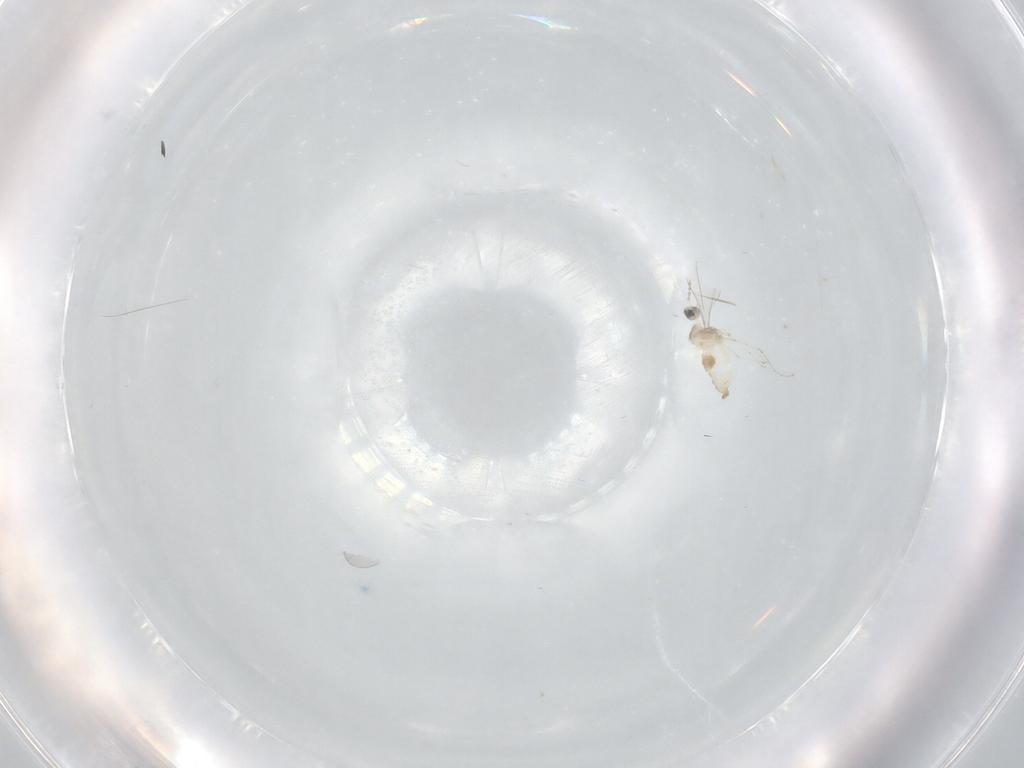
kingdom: Animalia
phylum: Arthropoda
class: Insecta
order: Diptera
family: Cecidomyiidae
